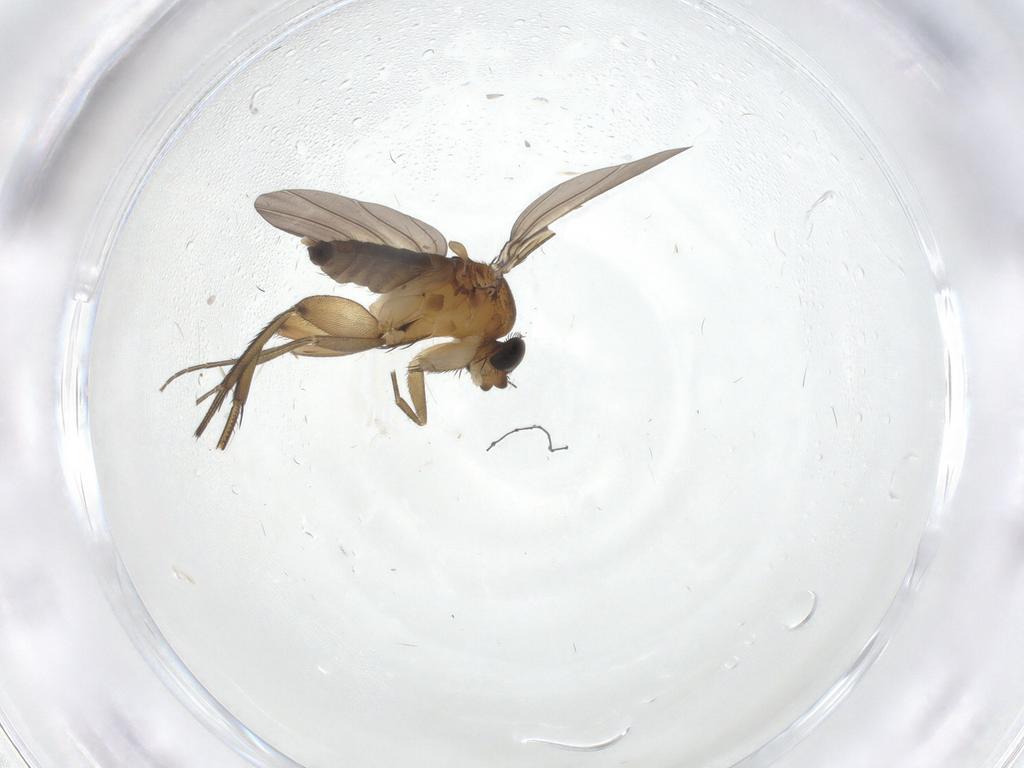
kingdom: Animalia
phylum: Arthropoda
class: Insecta
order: Diptera
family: Phoridae
